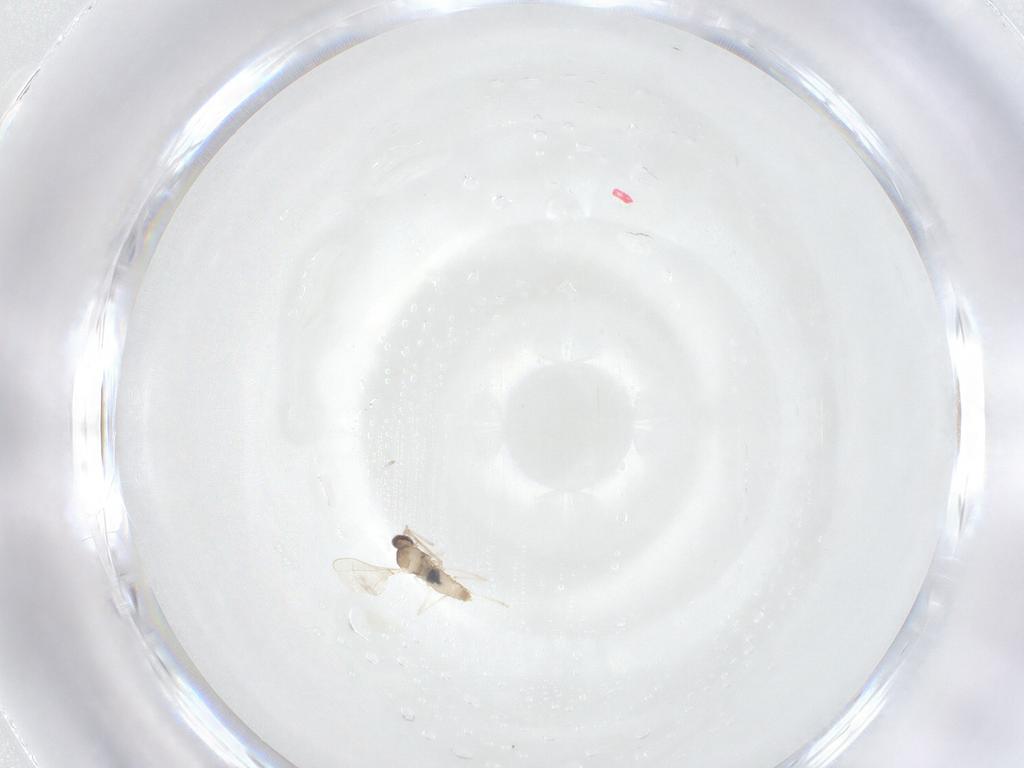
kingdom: Animalia
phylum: Arthropoda
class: Insecta
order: Diptera
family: Cecidomyiidae
